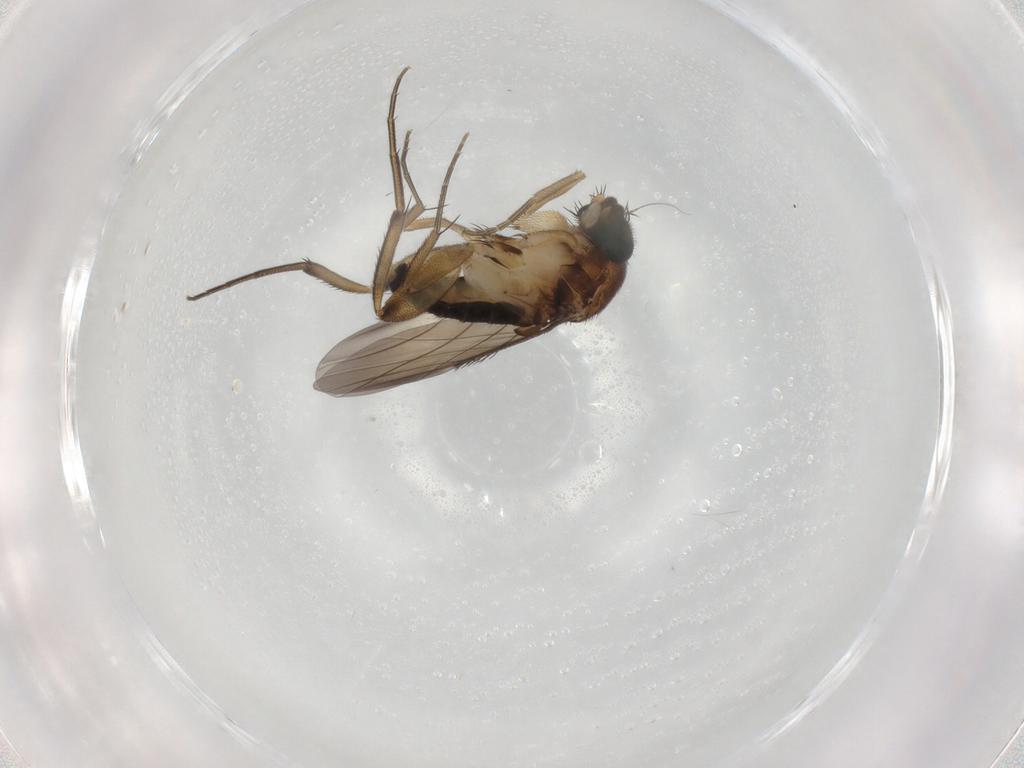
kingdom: Animalia
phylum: Arthropoda
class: Insecta
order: Diptera
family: Phoridae
